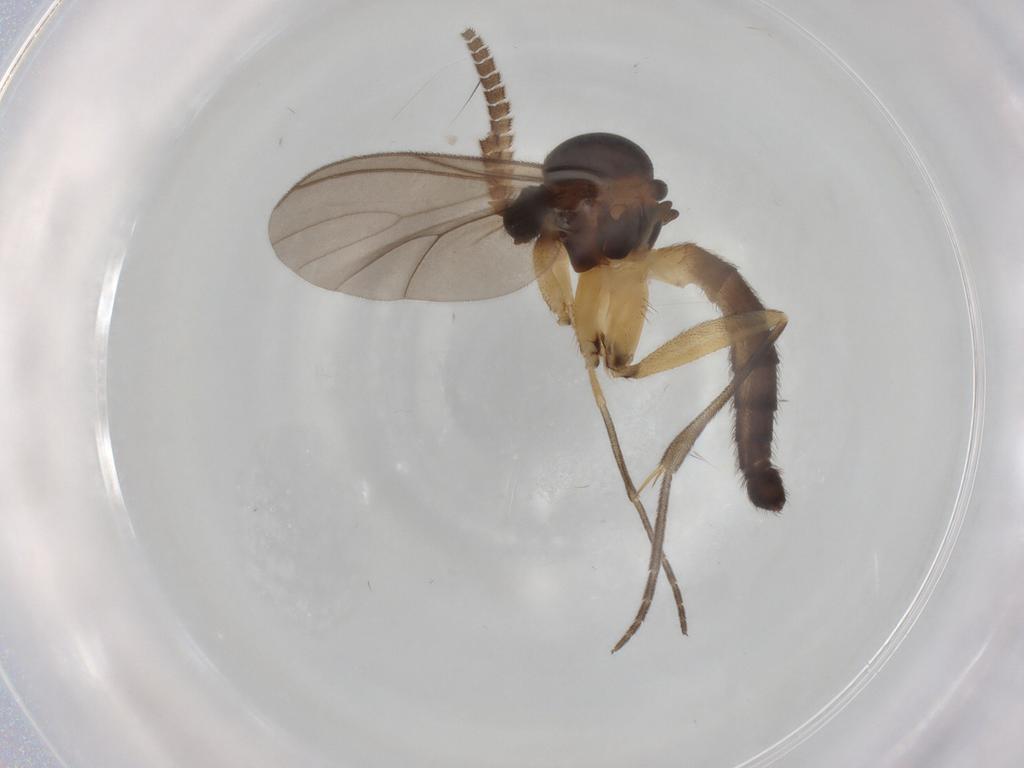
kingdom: Animalia
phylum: Arthropoda
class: Insecta
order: Diptera
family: Mycetophilidae
